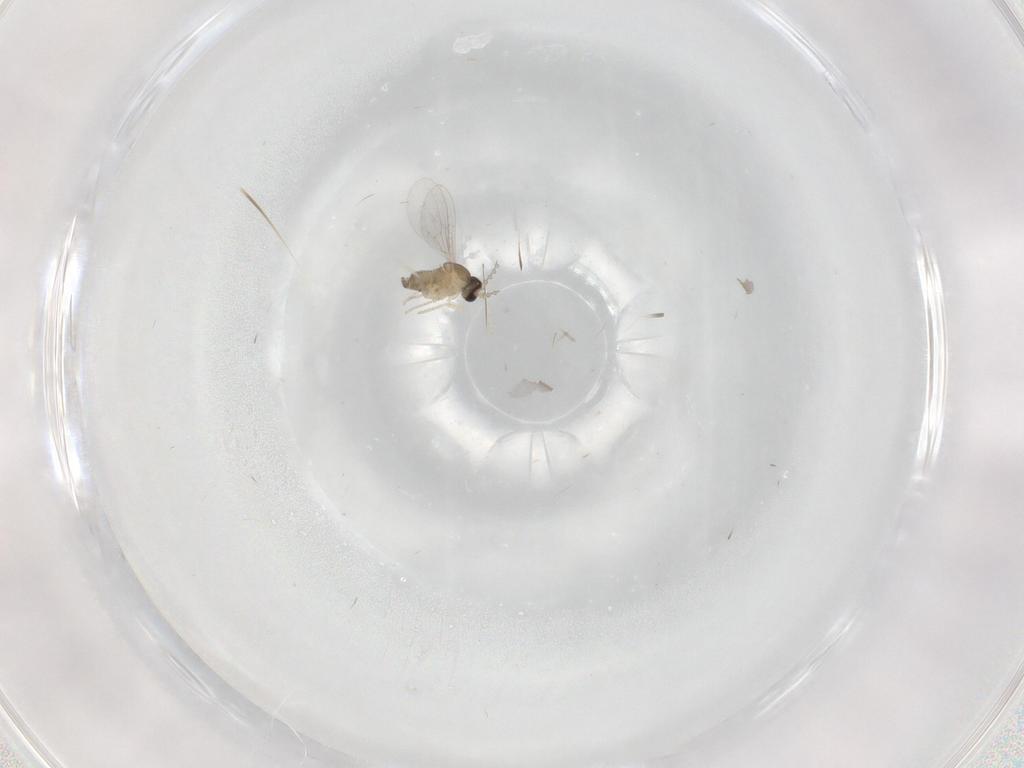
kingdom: Animalia
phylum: Arthropoda
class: Insecta
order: Diptera
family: Cecidomyiidae
